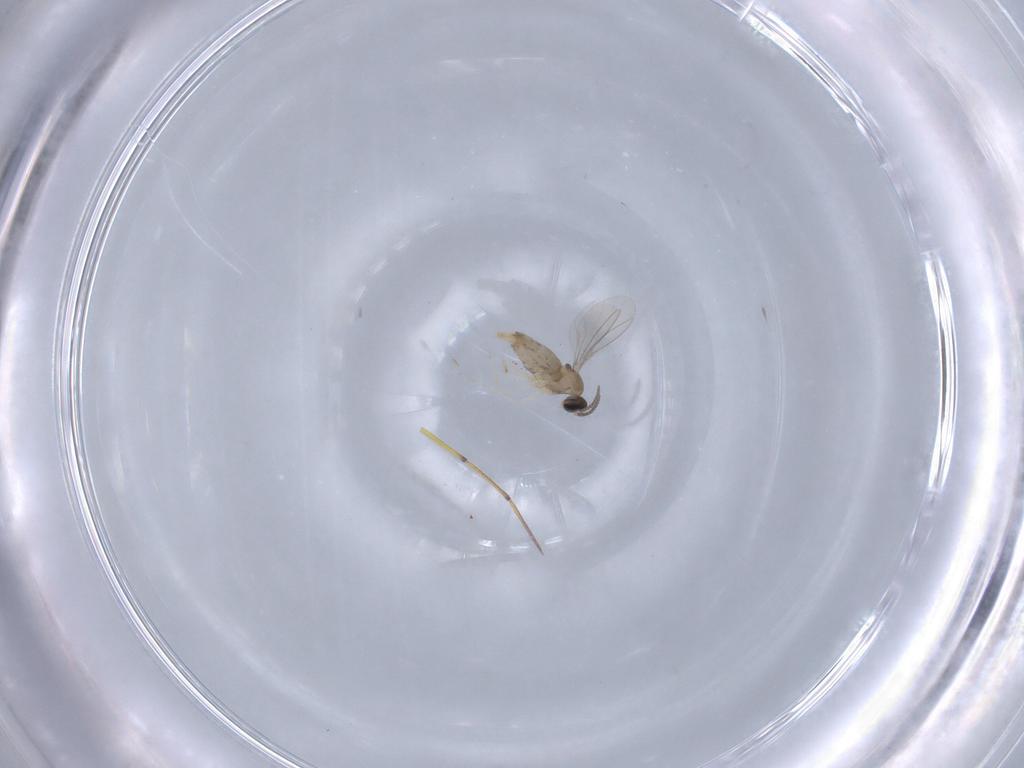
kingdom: Animalia
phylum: Arthropoda
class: Insecta
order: Diptera
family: Cecidomyiidae
